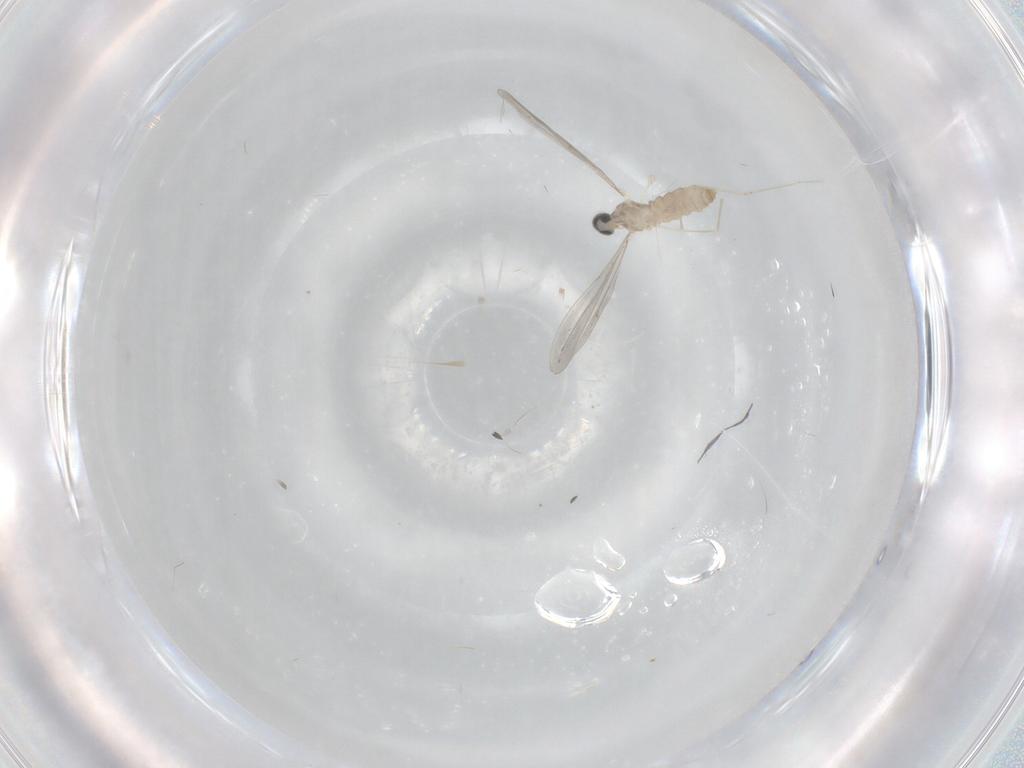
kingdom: Animalia
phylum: Arthropoda
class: Insecta
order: Diptera
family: Cecidomyiidae
